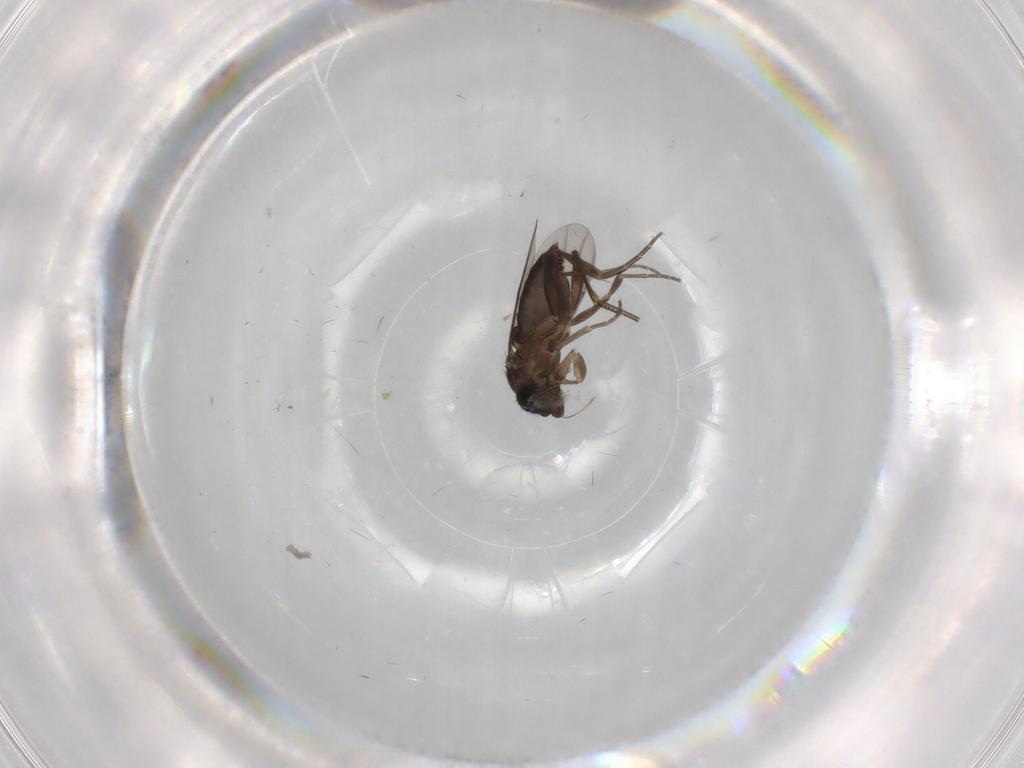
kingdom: Animalia
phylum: Arthropoda
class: Insecta
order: Diptera
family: Phoridae
